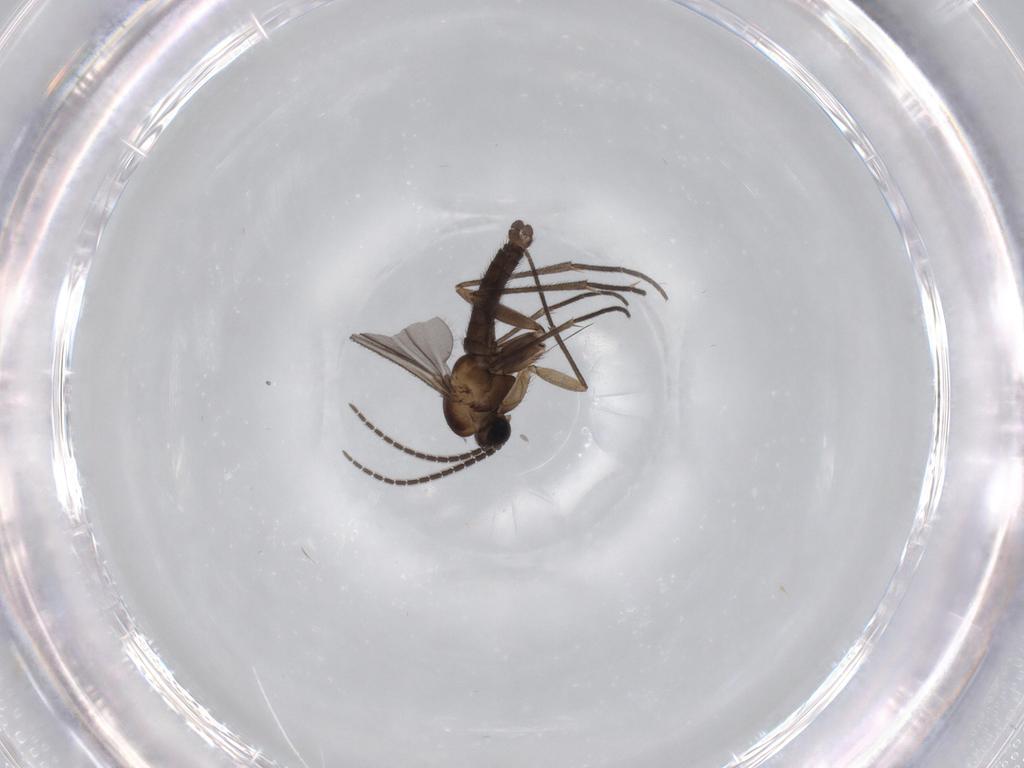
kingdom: Animalia
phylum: Arthropoda
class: Insecta
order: Diptera
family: Sciaridae
